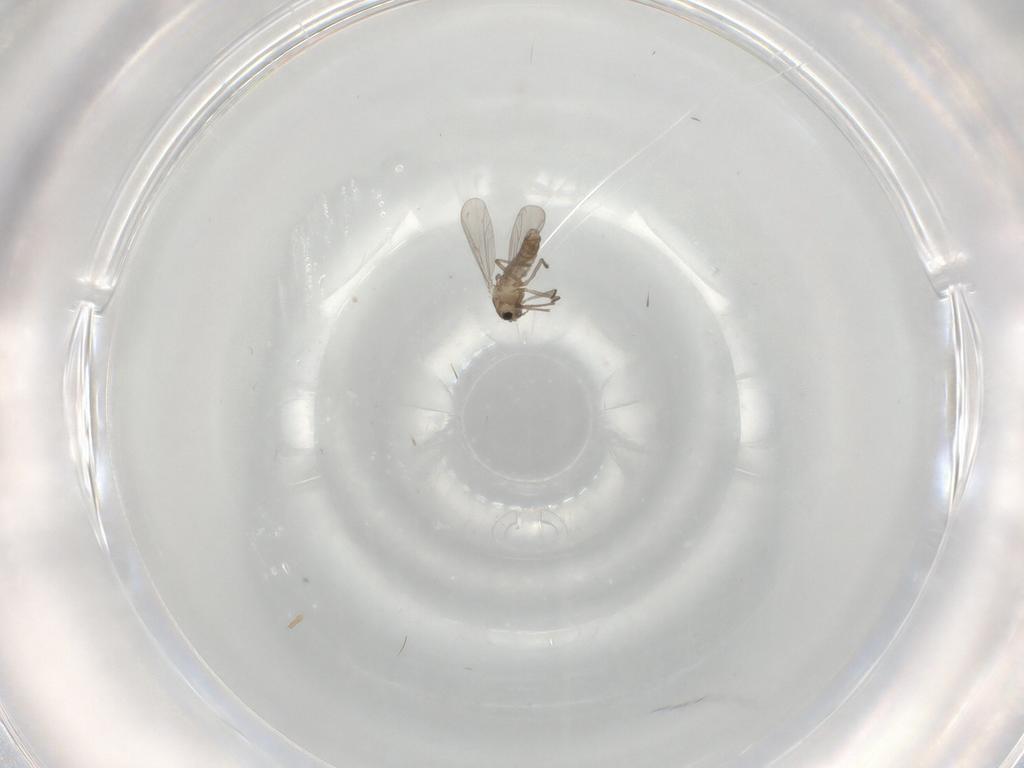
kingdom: Animalia
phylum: Arthropoda
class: Insecta
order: Diptera
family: Chironomidae
